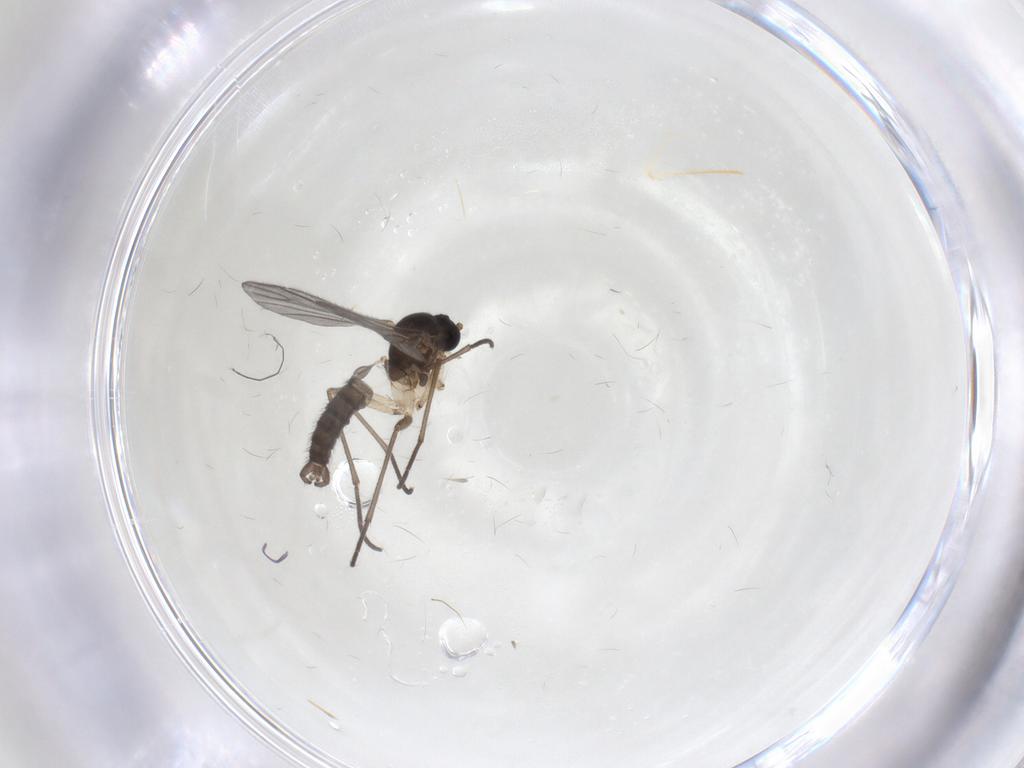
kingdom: Animalia
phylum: Arthropoda
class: Insecta
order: Diptera
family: Sciaridae
